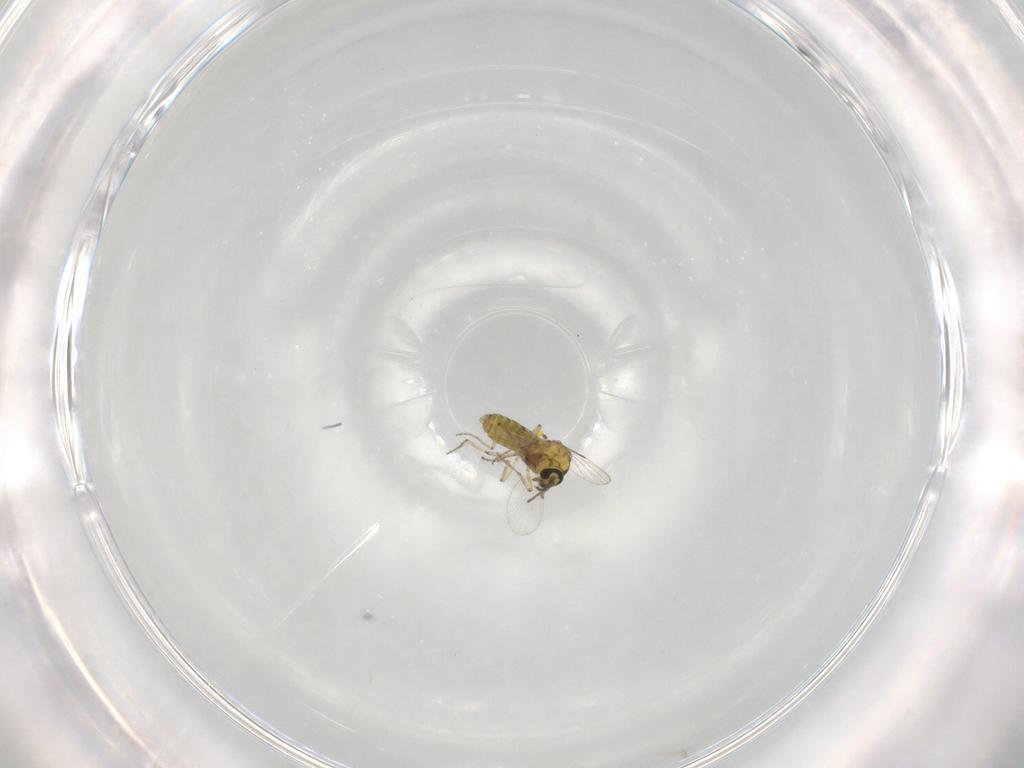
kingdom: Animalia
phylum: Arthropoda
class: Insecta
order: Diptera
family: Ceratopogonidae
